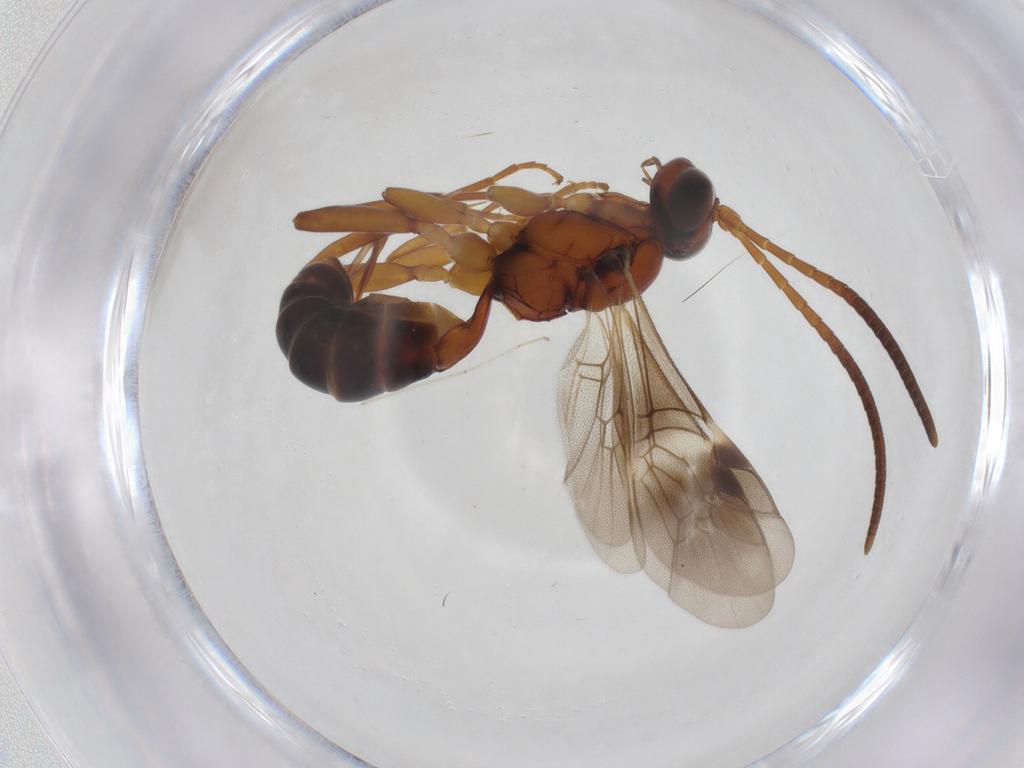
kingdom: Animalia
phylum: Arthropoda
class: Insecta
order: Hymenoptera
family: Ichneumonidae
